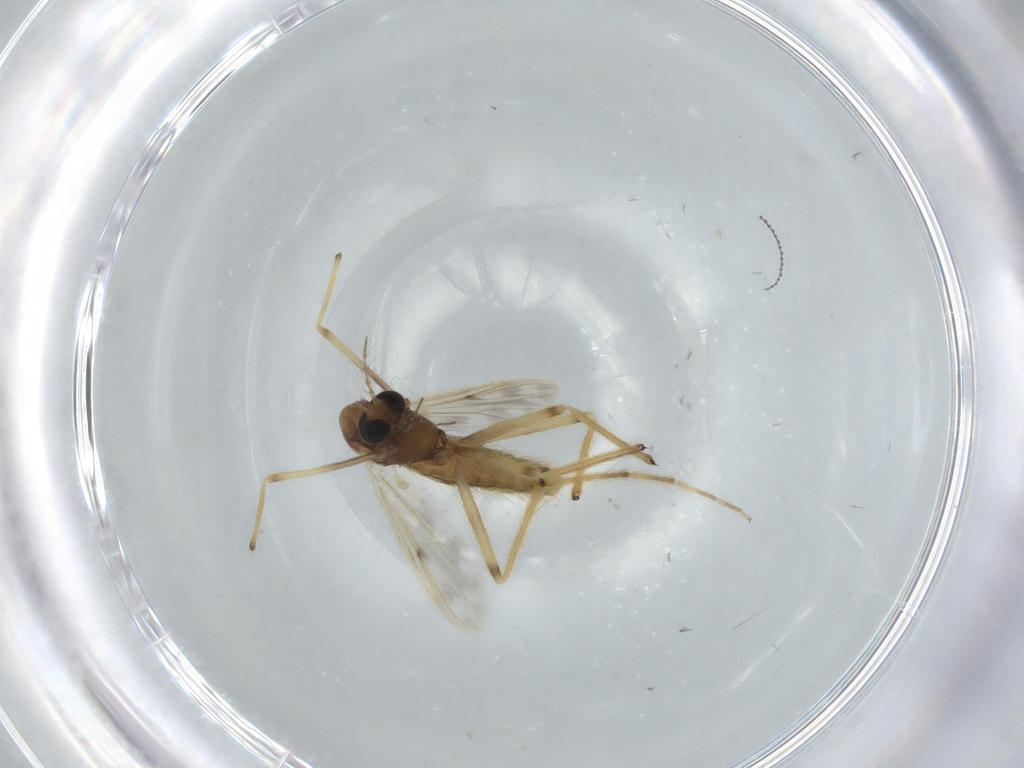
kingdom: Animalia
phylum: Arthropoda
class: Insecta
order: Diptera
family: Chironomidae
